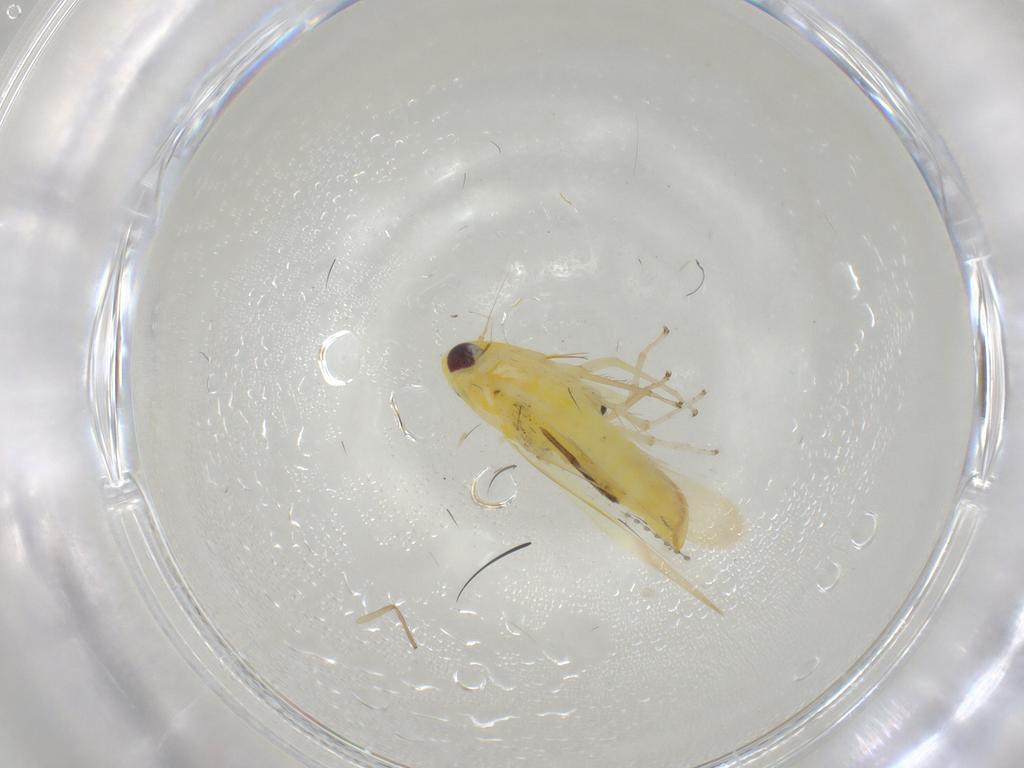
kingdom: Animalia
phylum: Arthropoda
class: Insecta
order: Hemiptera
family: Cicadellidae
